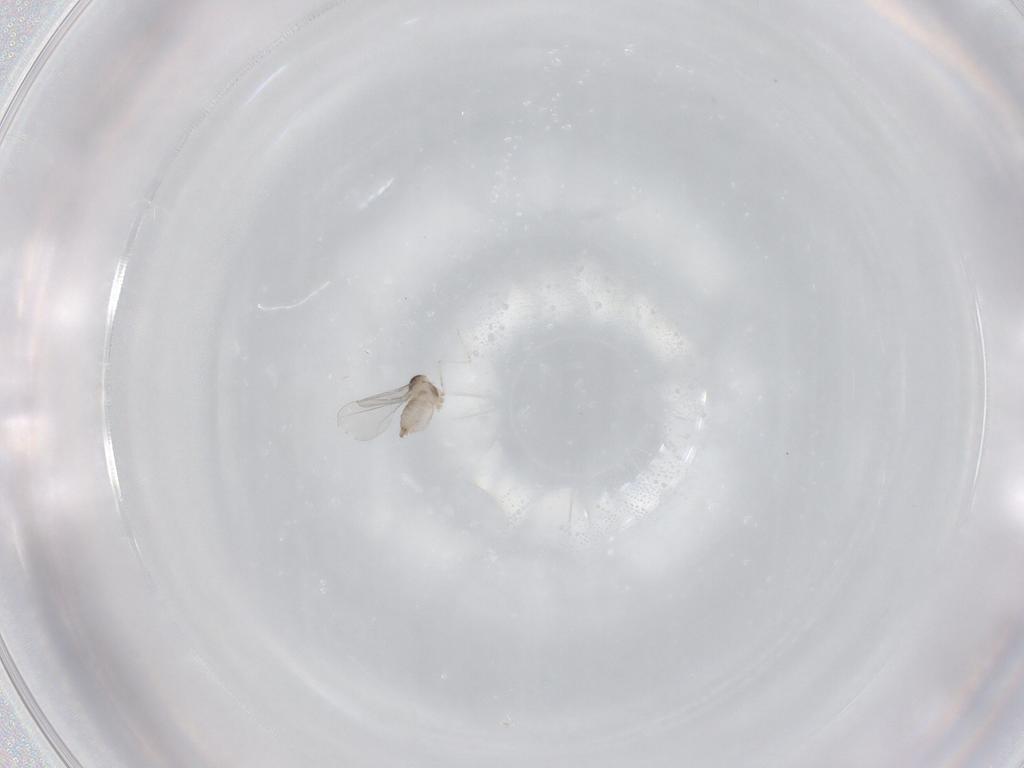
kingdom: Animalia
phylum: Arthropoda
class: Insecta
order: Diptera
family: Cecidomyiidae
